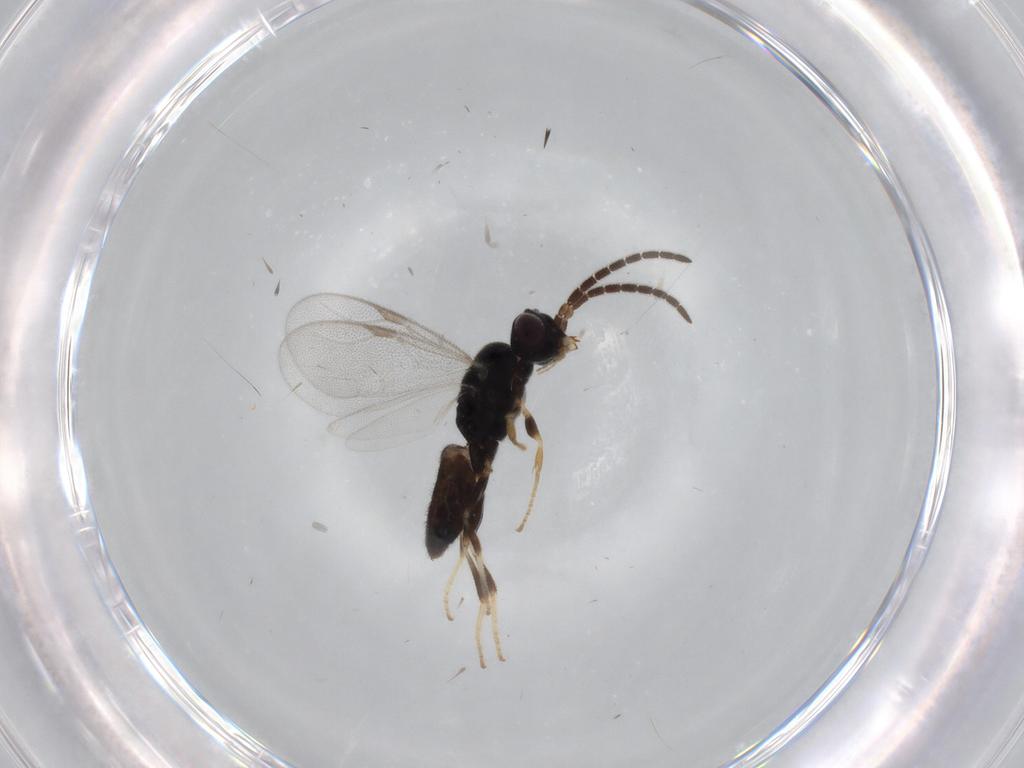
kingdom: Animalia
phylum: Arthropoda
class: Insecta
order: Hymenoptera
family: Dryinidae
